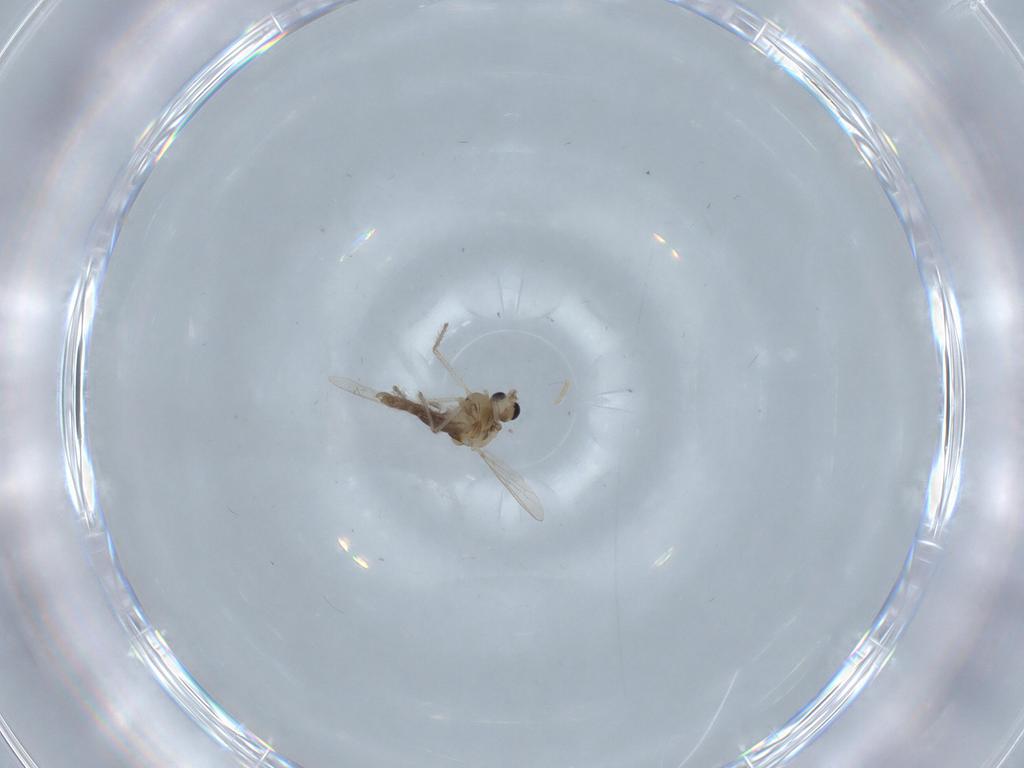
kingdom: Animalia
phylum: Arthropoda
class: Insecta
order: Diptera
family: Chironomidae
